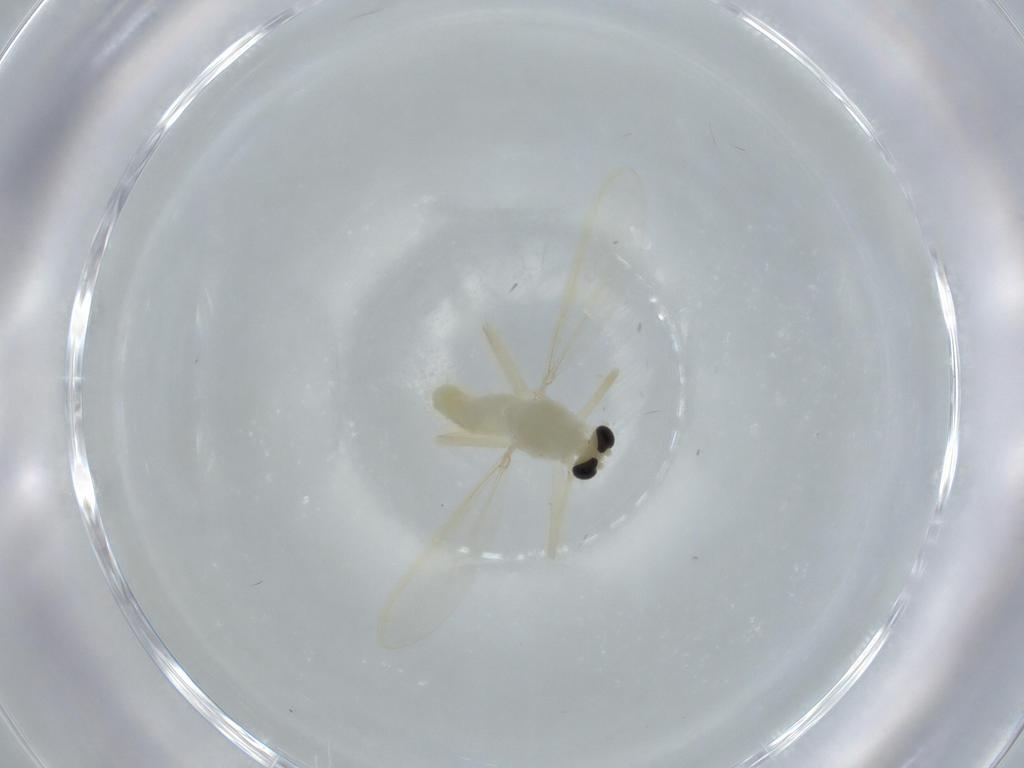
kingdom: Animalia
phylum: Arthropoda
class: Insecta
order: Diptera
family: Chironomidae
